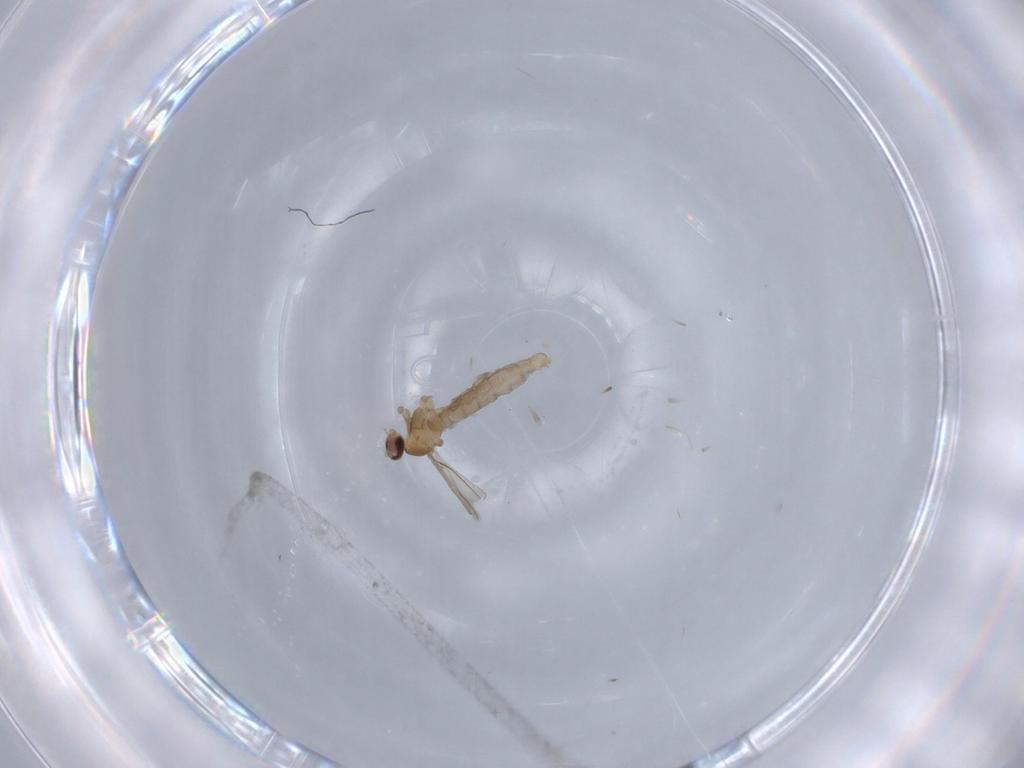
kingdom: Animalia
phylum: Arthropoda
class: Insecta
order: Diptera
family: Cecidomyiidae
